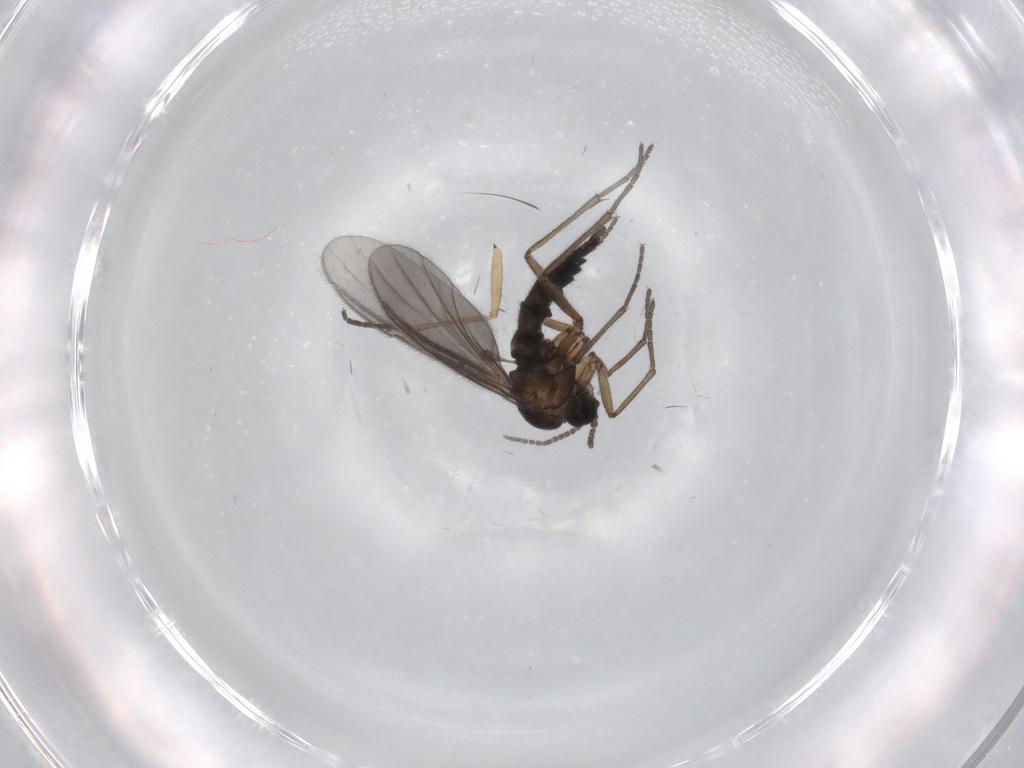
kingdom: Animalia
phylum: Arthropoda
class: Insecta
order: Diptera
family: Sciaridae
